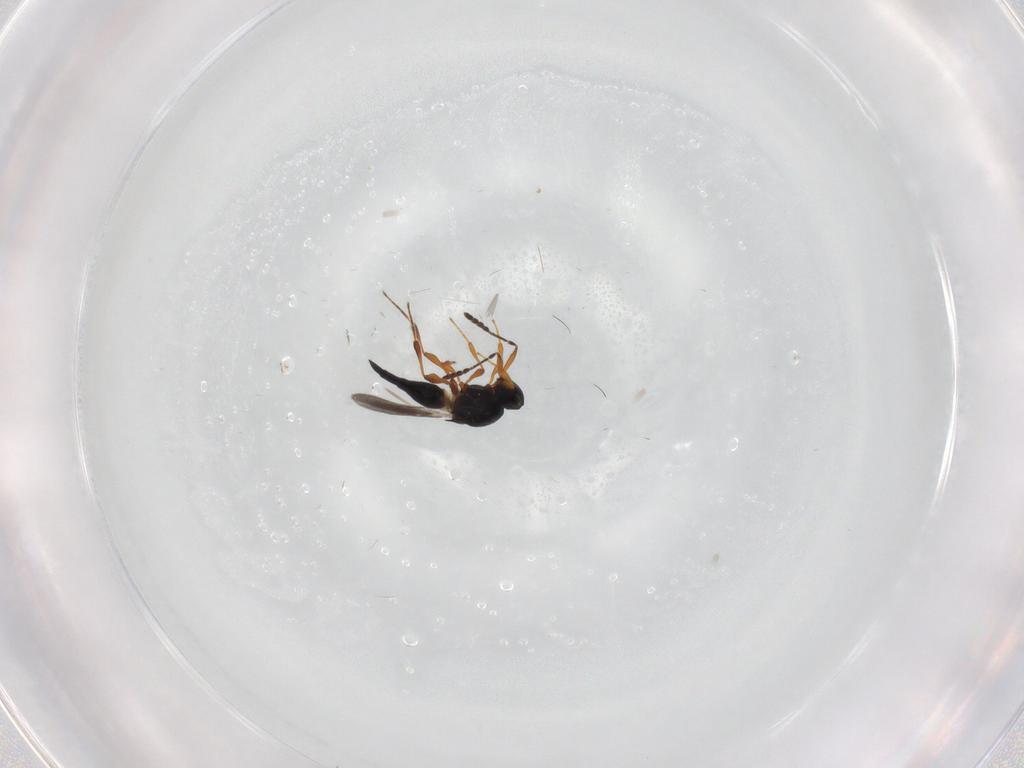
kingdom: Animalia
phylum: Arthropoda
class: Insecta
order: Hymenoptera
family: Platygastridae
